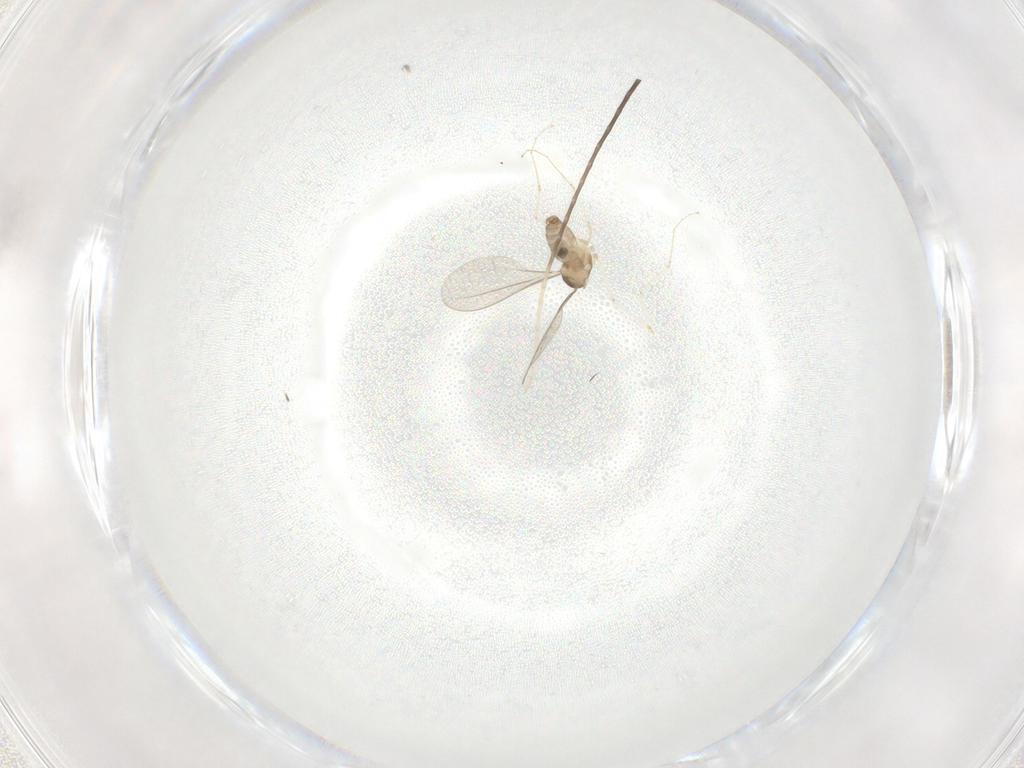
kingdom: Animalia
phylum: Arthropoda
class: Insecta
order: Diptera
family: Cecidomyiidae
